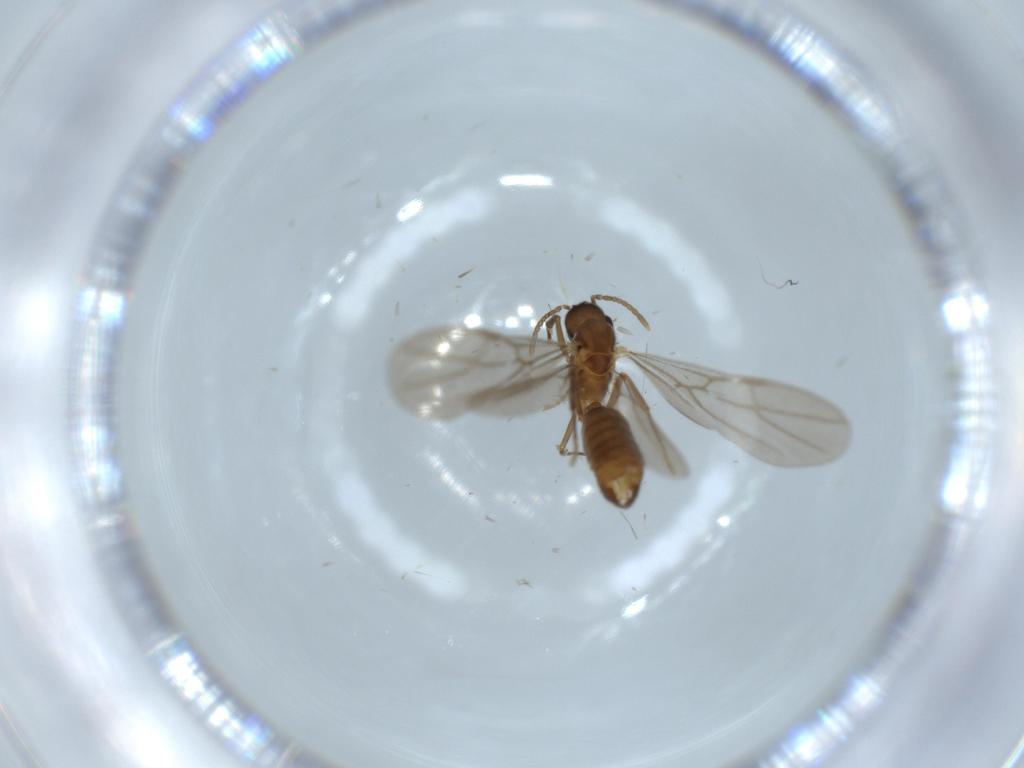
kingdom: Animalia
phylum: Arthropoda
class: Insecta
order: Hymenoptera
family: Formicidae
